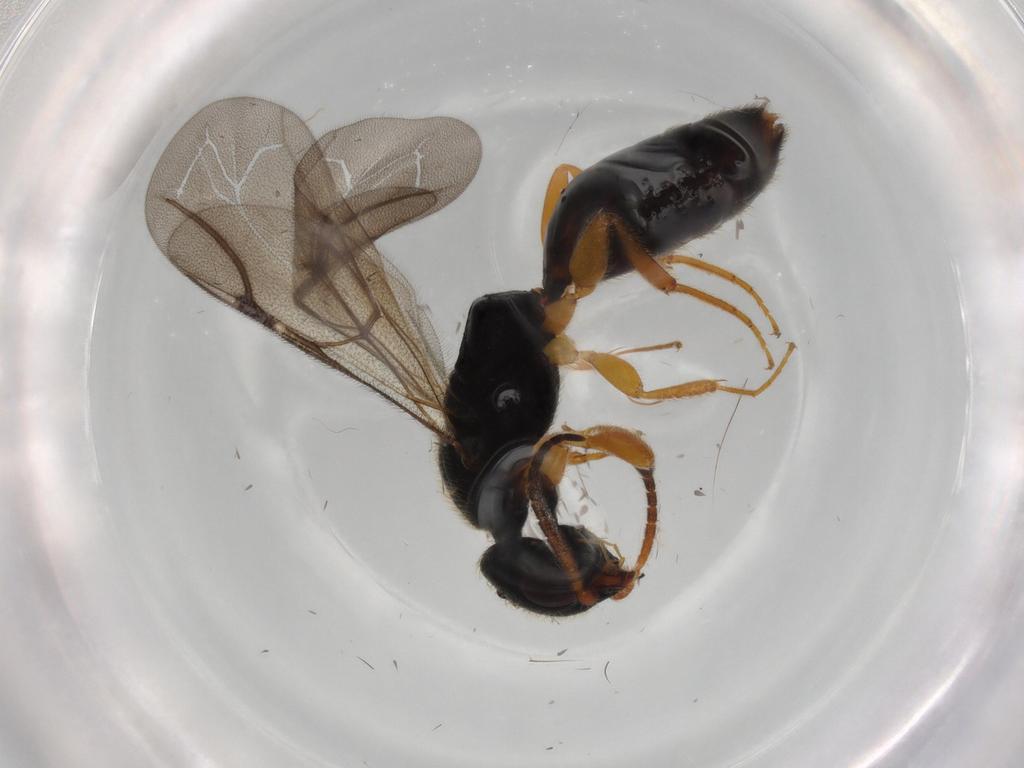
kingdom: Animalia
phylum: Arthropoda
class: Insecta
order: Hymenoptera
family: Bethylidae
